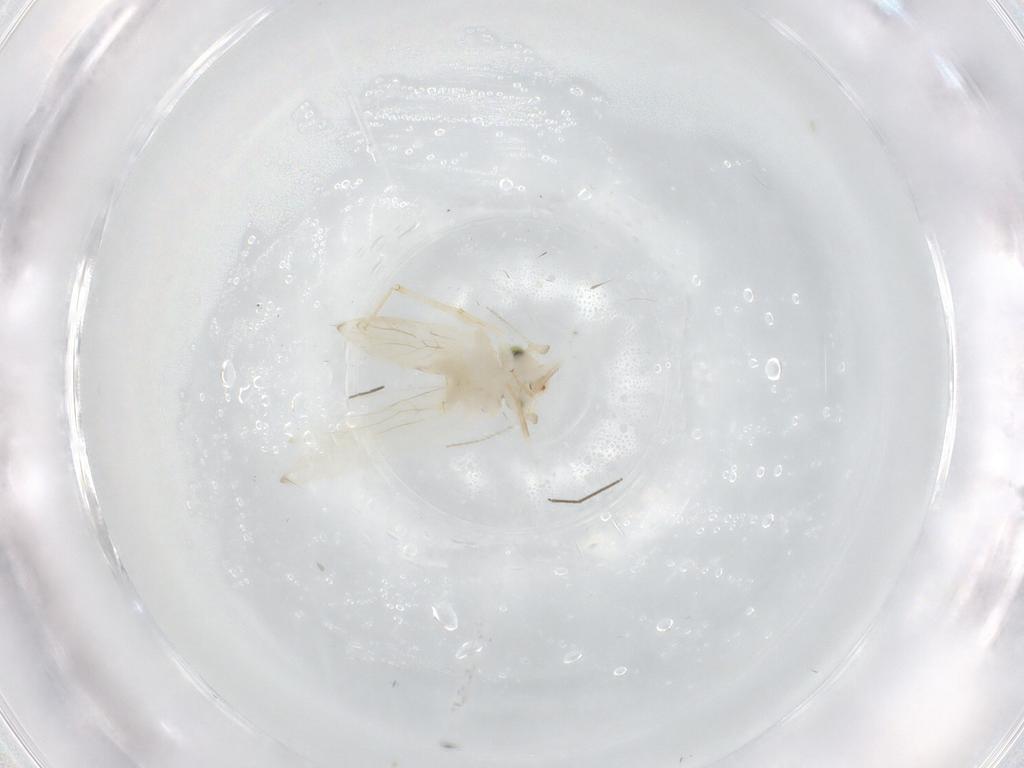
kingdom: Animalia
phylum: Arthropoda
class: Insecta
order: Psocodea
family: Lepidopsocidae
